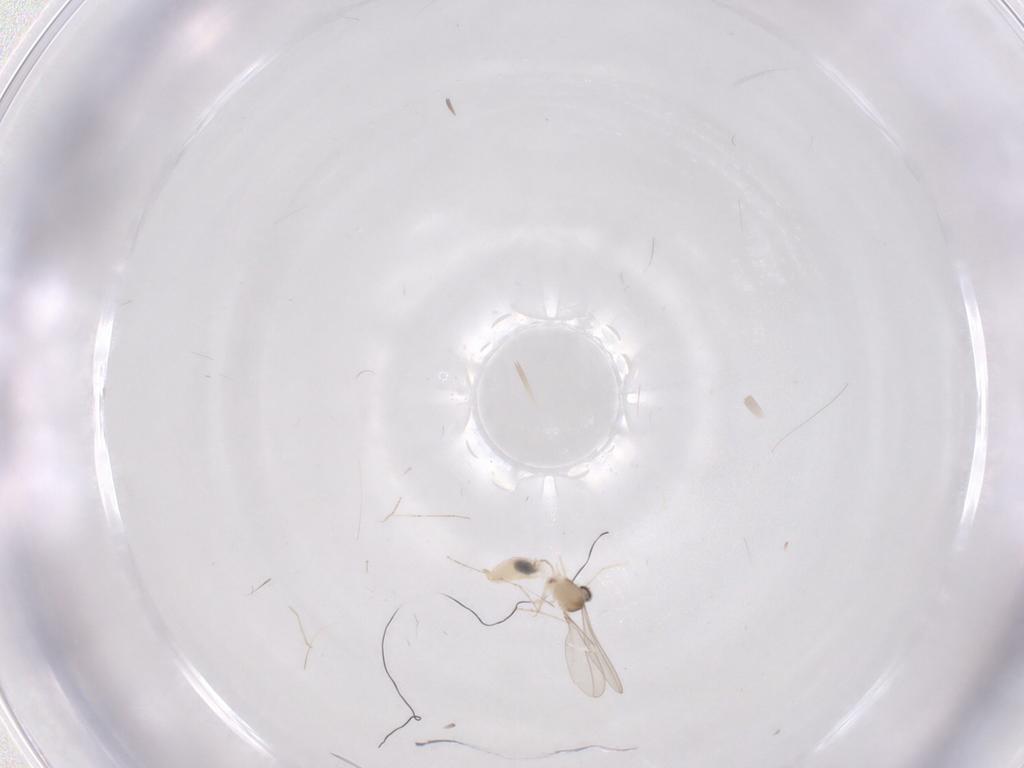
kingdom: Animalia
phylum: Arthropoda
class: Insecta
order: Diptera
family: Cecidomyiidae
